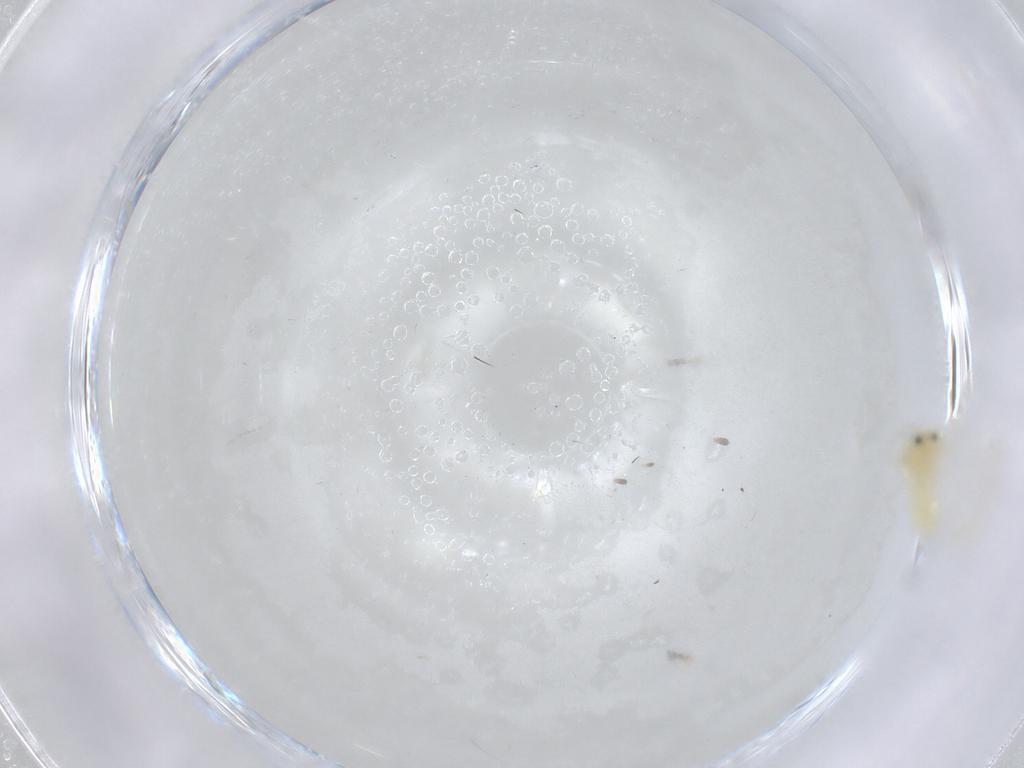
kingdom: Animalia
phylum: Arthropoda
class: Insecta
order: Hemiptera
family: Aleyrodidae
